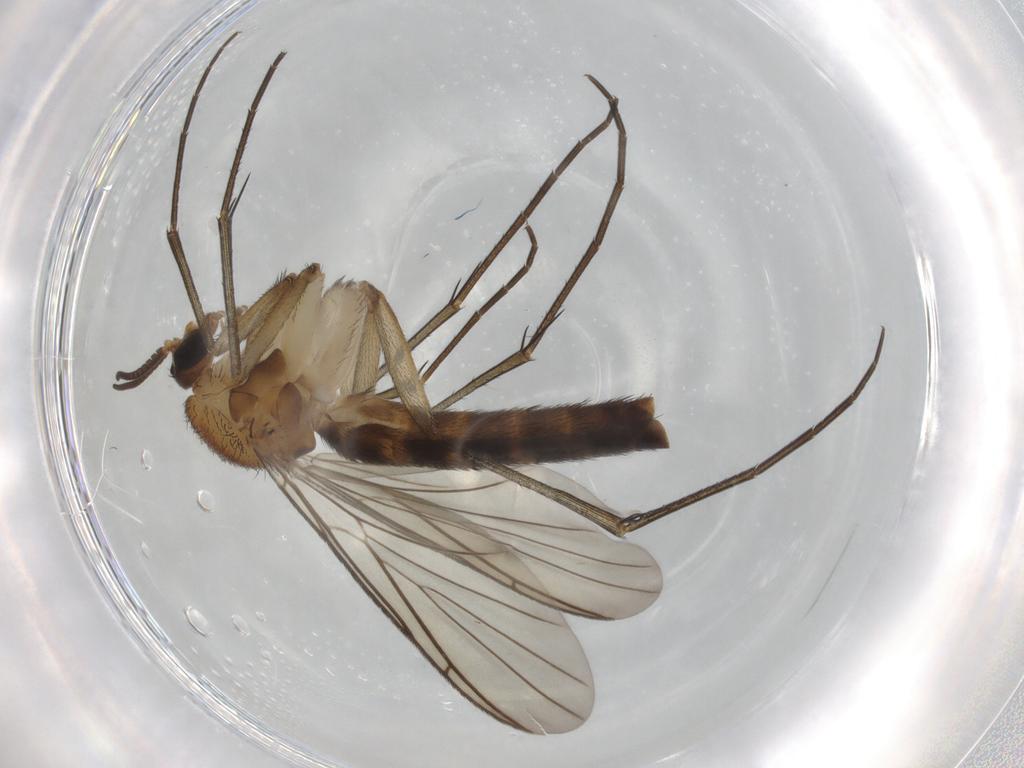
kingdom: Animalia
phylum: Arthropoda
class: Insecta
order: Diptera
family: Keroplatidae
